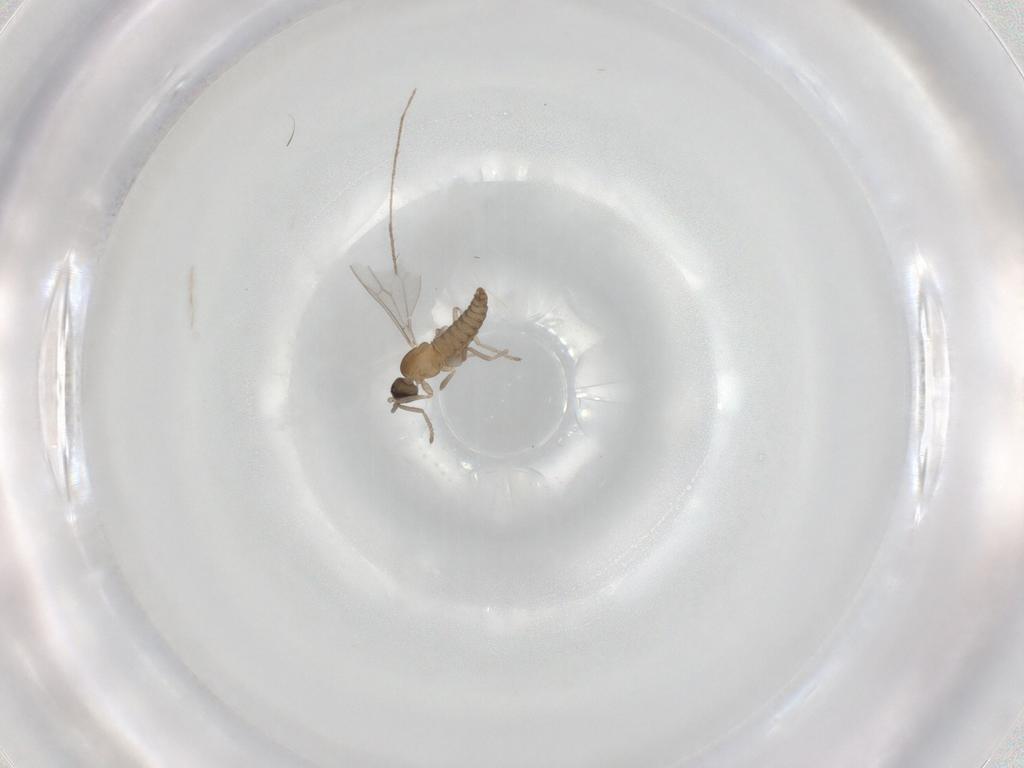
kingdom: Animalia
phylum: Arthropoda
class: Insecta
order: Diptera
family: Cecidomyiidae
